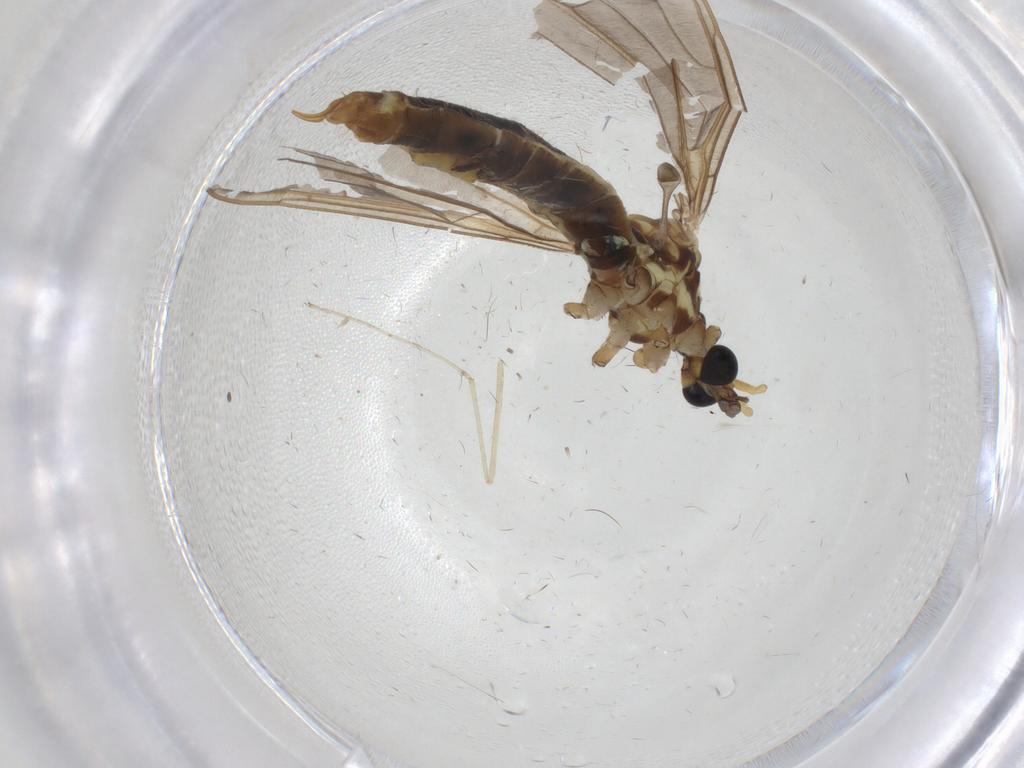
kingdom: Animalia
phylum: Arthropoda
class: Insecta
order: Diptera
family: Limoniidae
